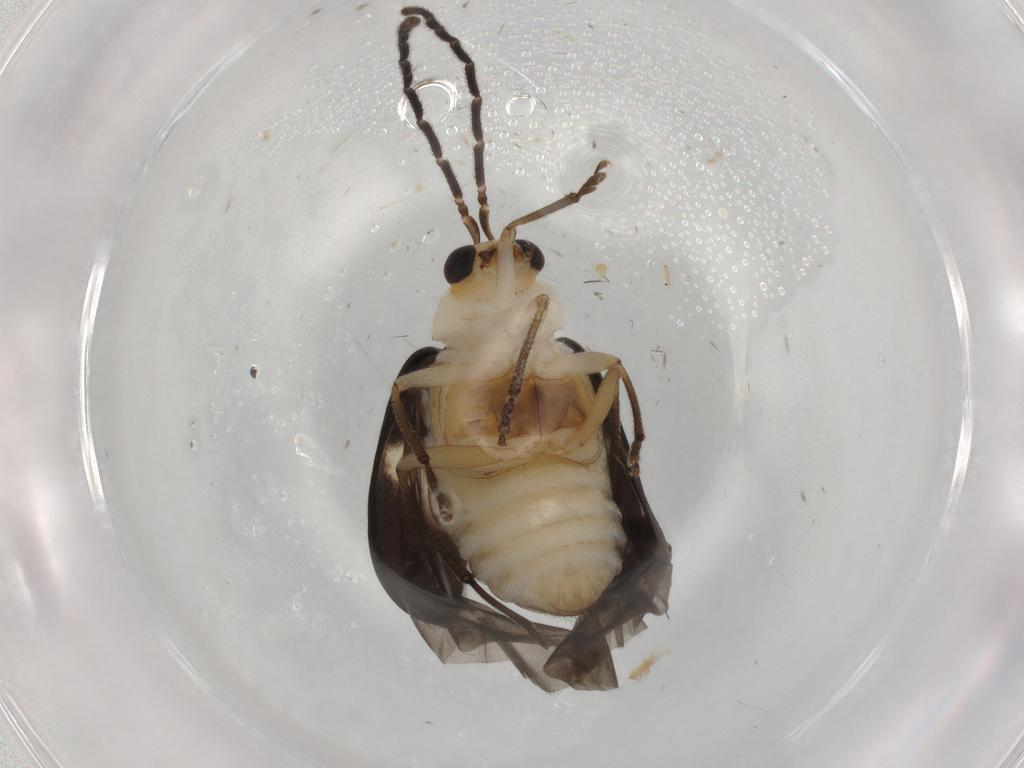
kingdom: Animalia
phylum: Arthropoda
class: Insecta
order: Coleoptera
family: Chrysomelidae
